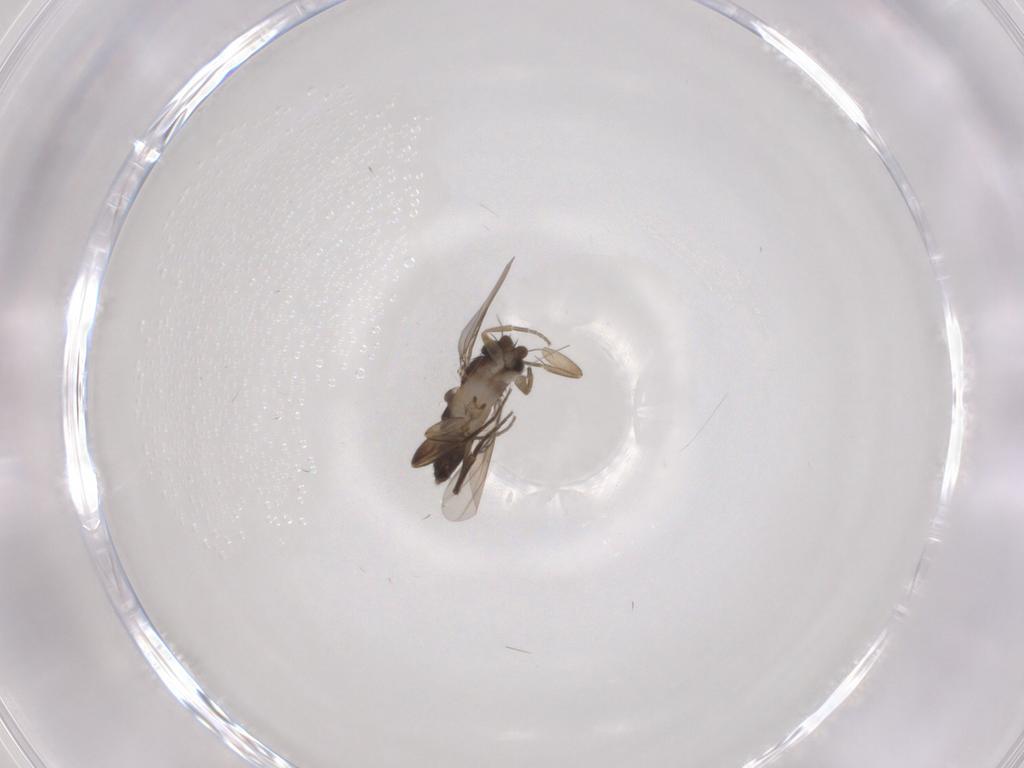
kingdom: Animalia
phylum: Arthropoda
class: Insecta
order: Diptera
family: Phoridae
